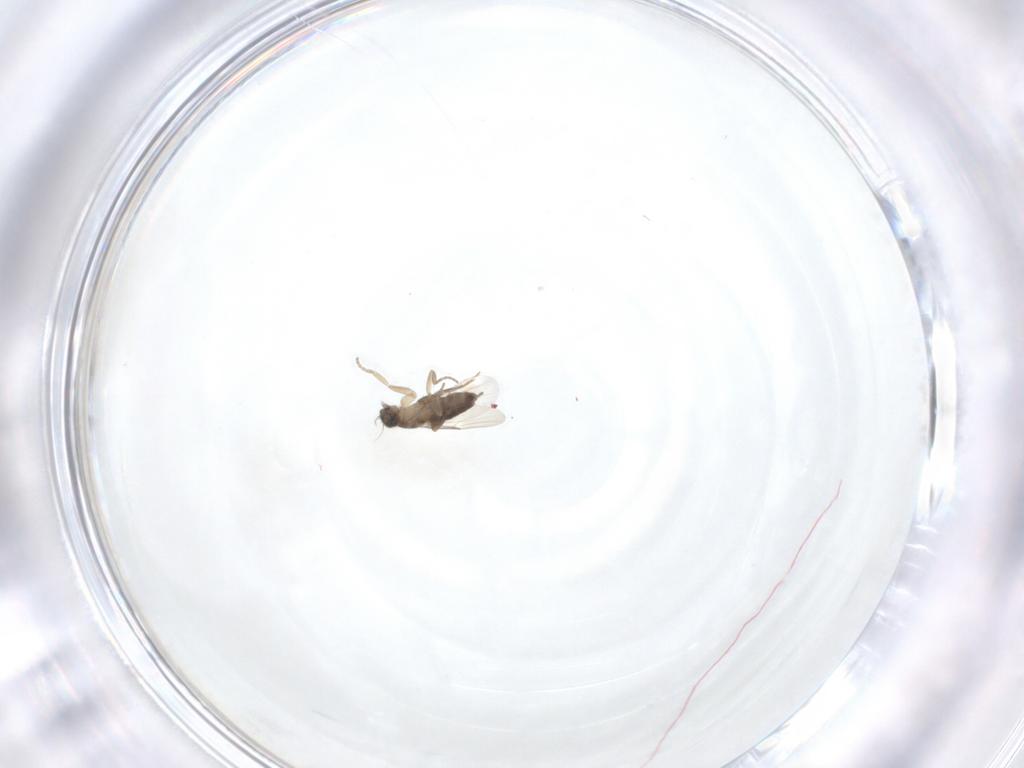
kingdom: Animalia
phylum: Arthropoda
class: Insecta
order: Diptera
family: Phoridae
